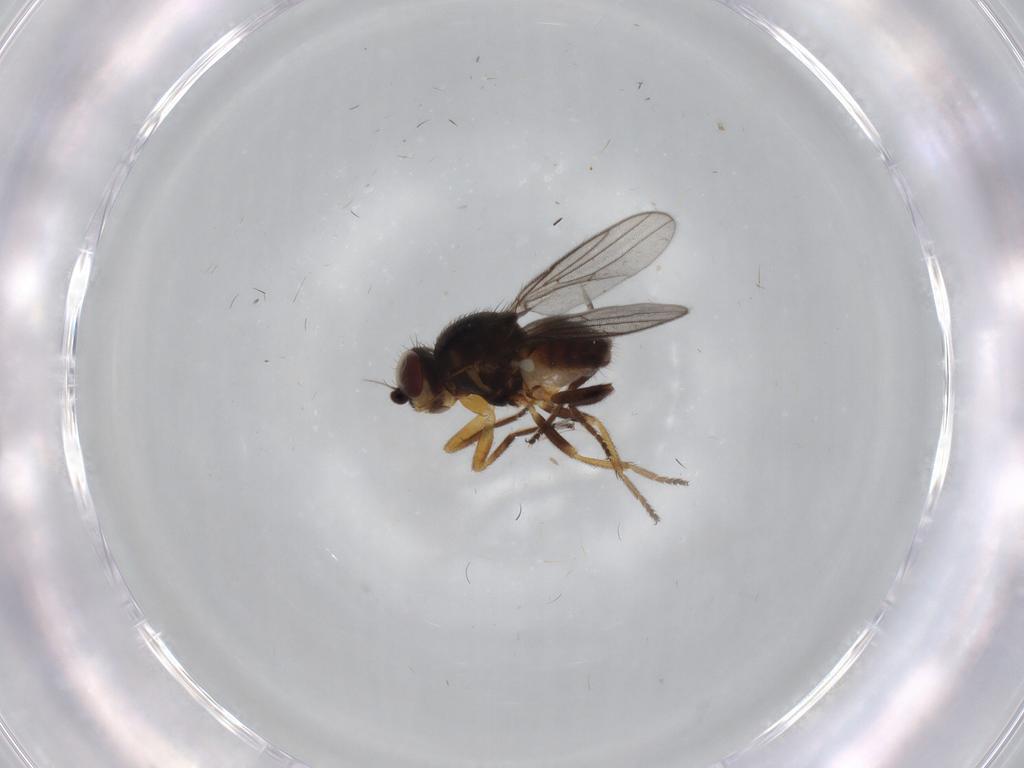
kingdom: Animalia
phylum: Arthropoda
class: Insecta
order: Diptera
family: Chloropidae
